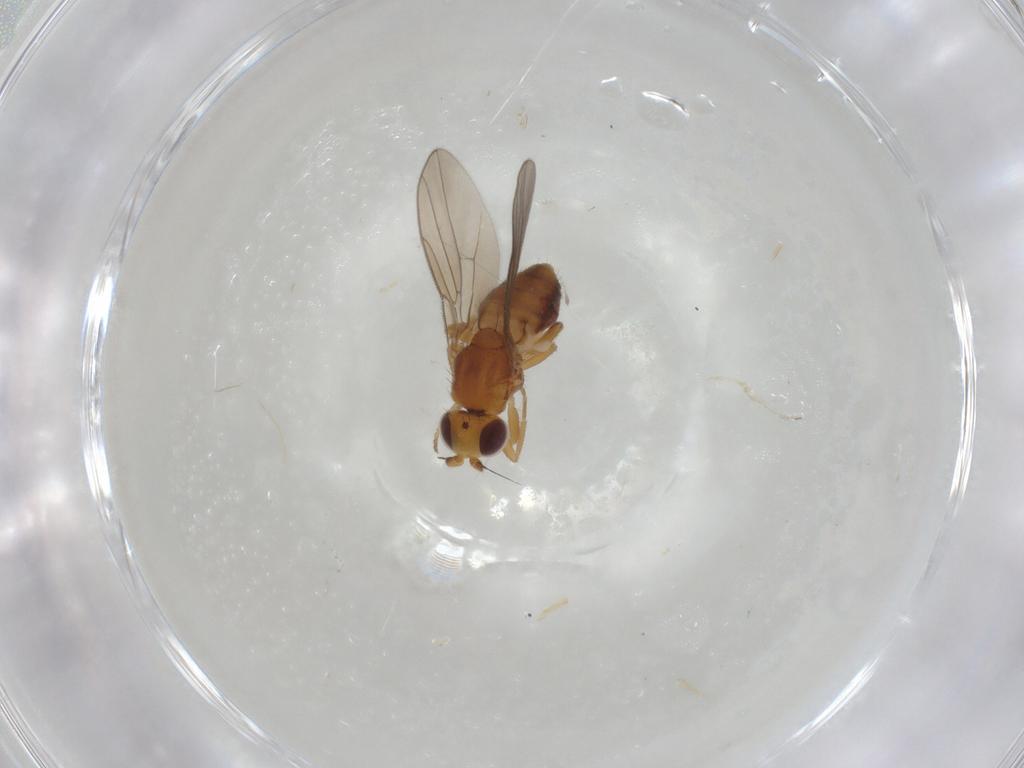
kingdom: Animalia
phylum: Arthropoda
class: Insecta
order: Diptera
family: Chloropidae
